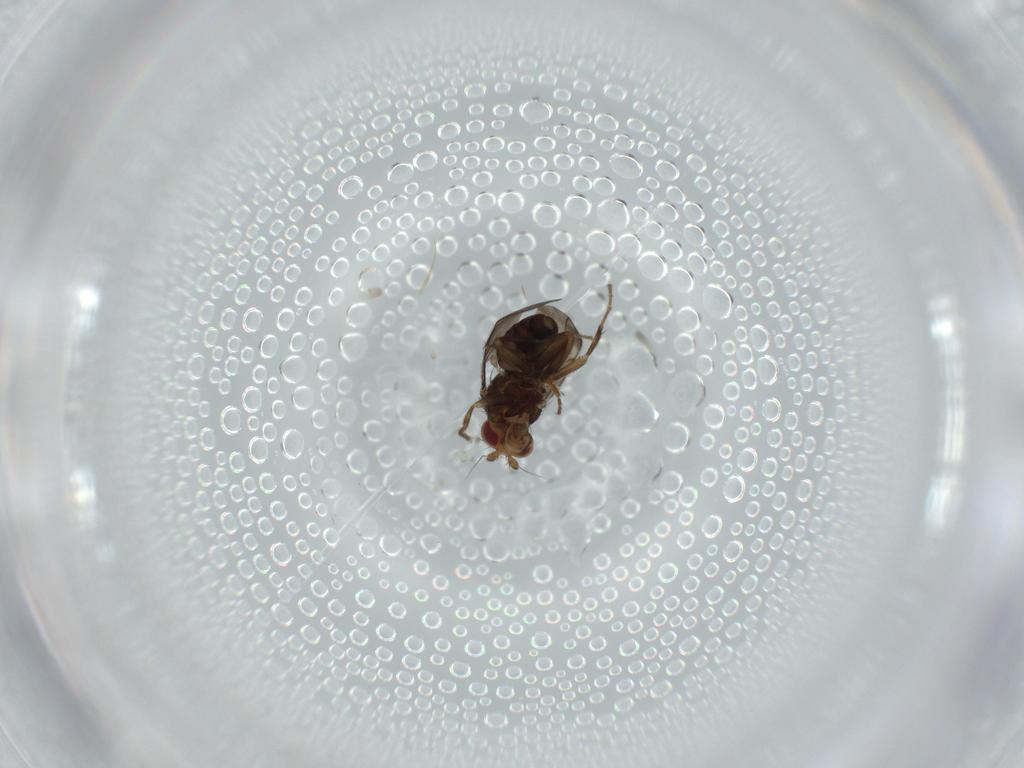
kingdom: Animalia
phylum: Arthropoda
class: Insecta
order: Diptera
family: Sphaeroceridae
